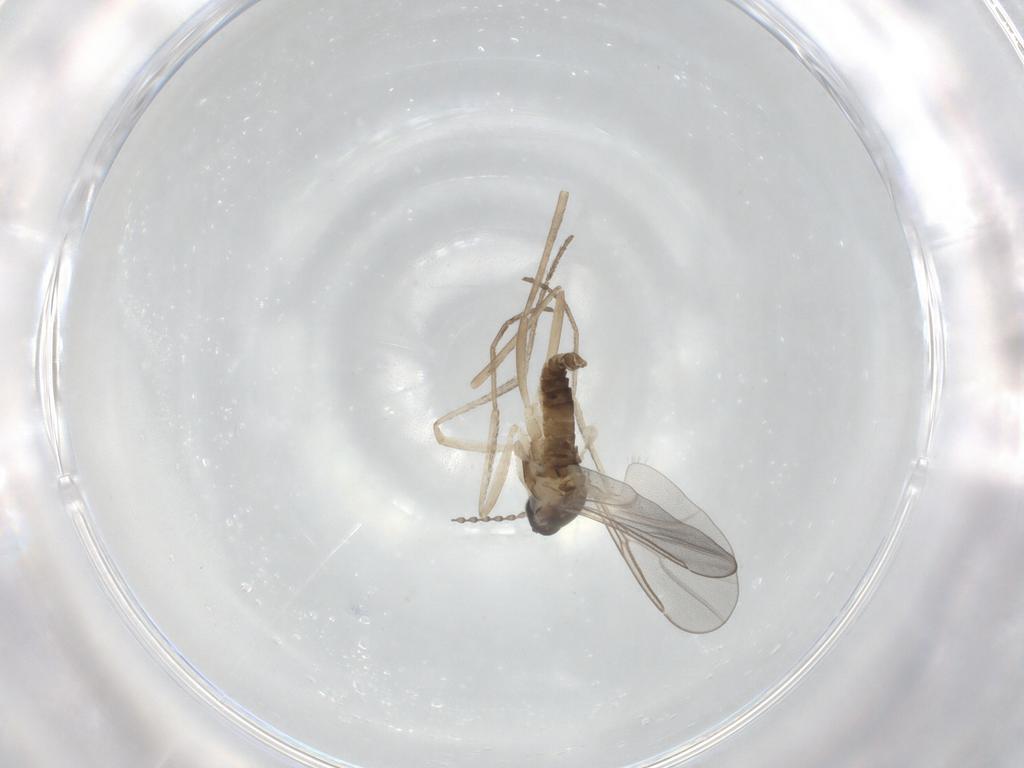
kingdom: Animalia
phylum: Arthropoda
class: Insecta
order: Diptera
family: Cecidomyiidae
